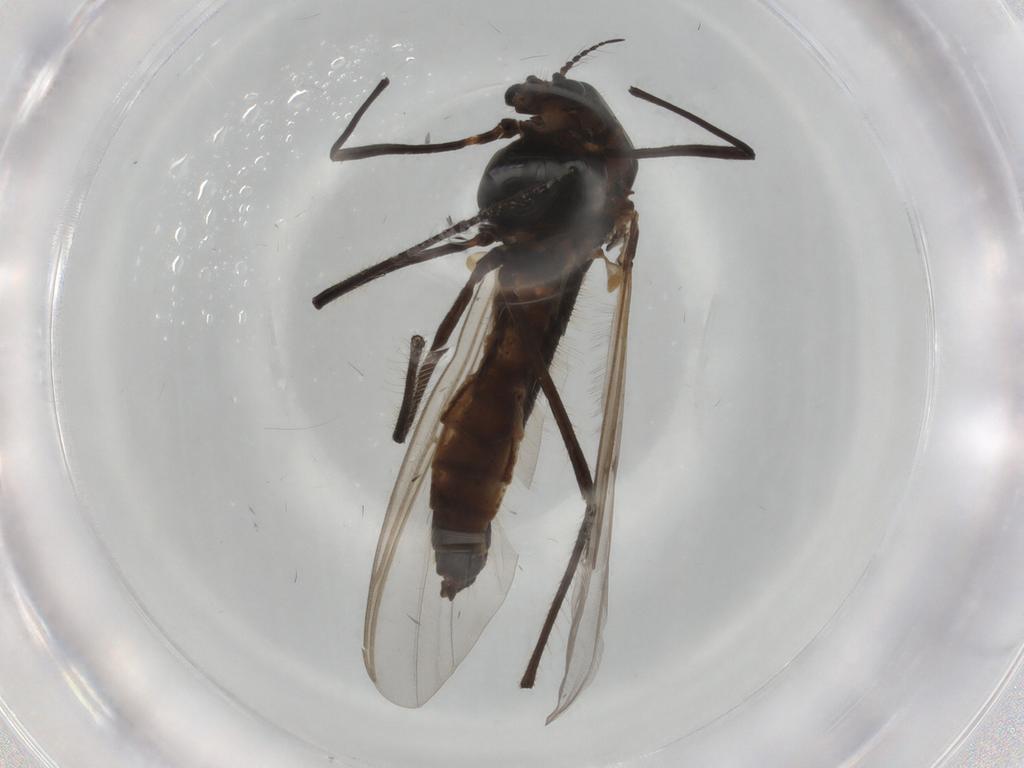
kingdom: Animalia
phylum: Arthropoda
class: Insecta
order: Diptera
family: Chironomidae
